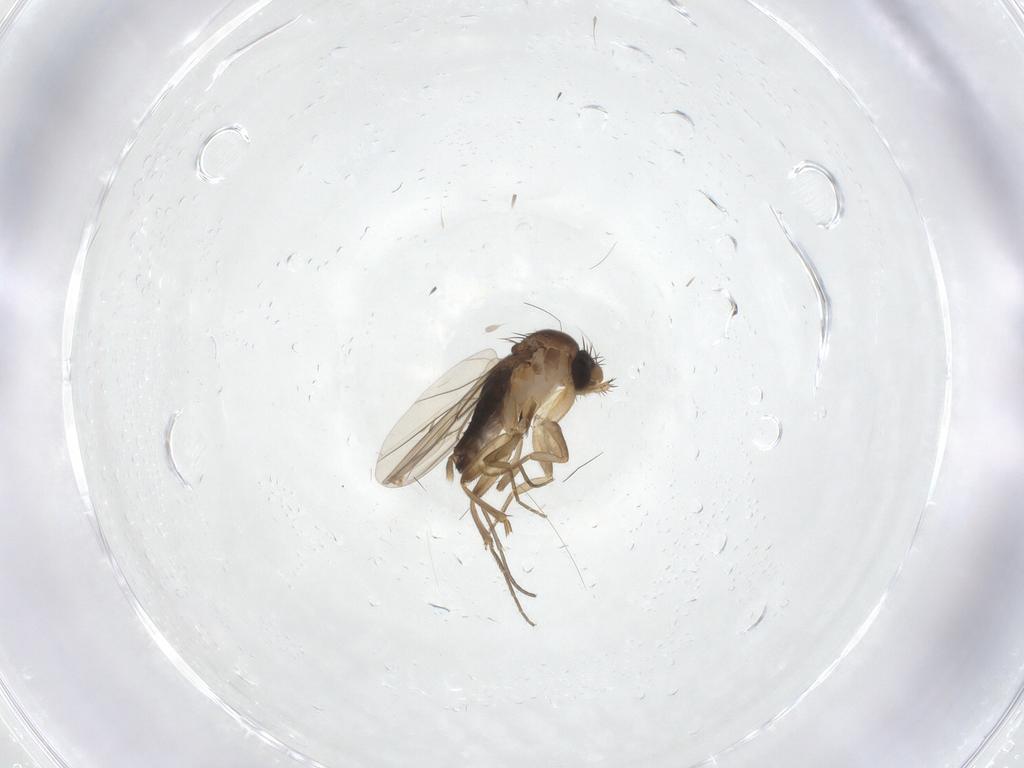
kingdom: Animalia
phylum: Arthropoda
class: Insecta
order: Diptera
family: Phoridae
